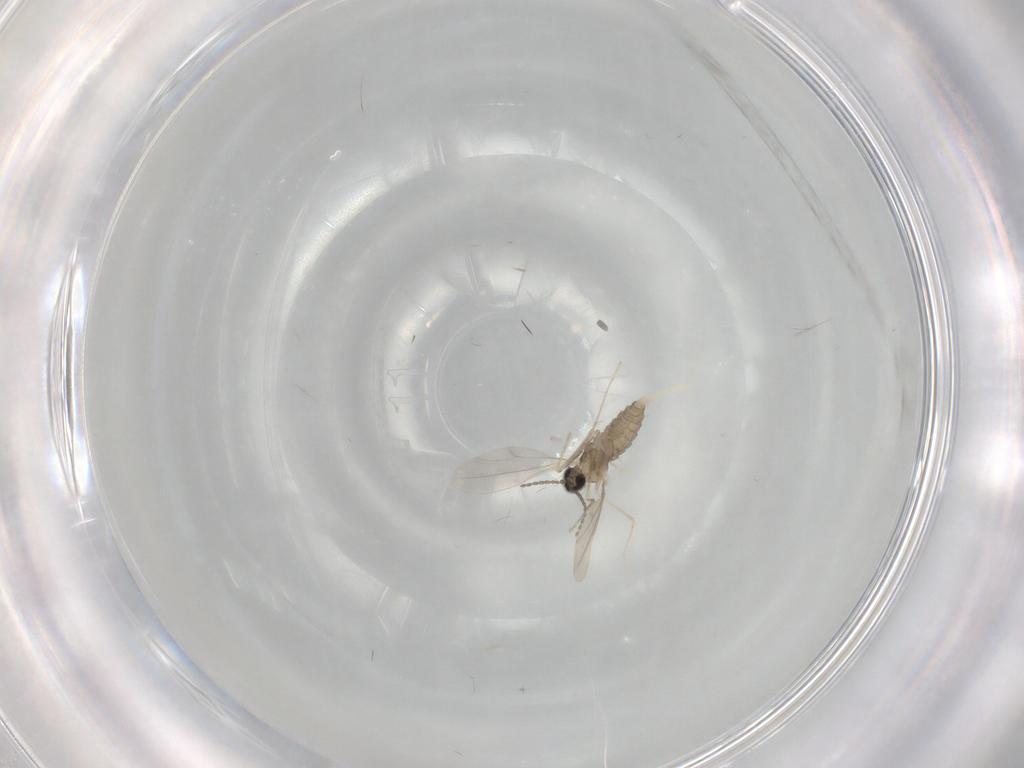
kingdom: Animalia
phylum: Arthropoda
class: Insecta
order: Diptera
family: Cecidomyiidae
